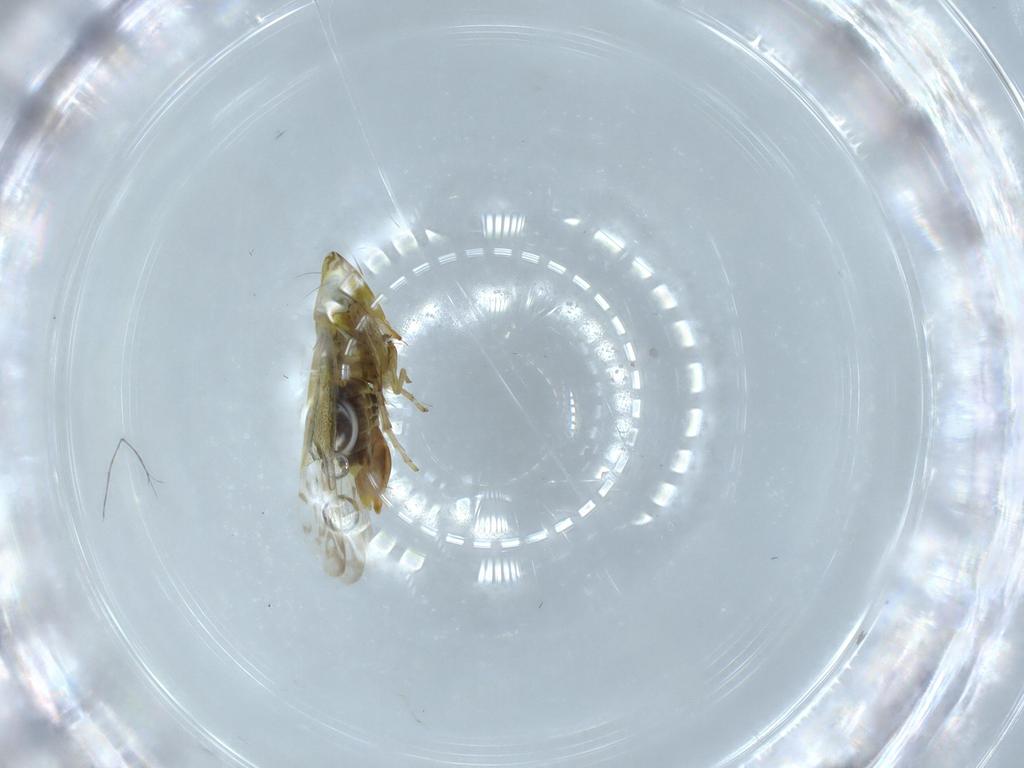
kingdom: Animalia
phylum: Arthropoda
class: Insecta
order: Hemiptera
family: Cicadellidae
